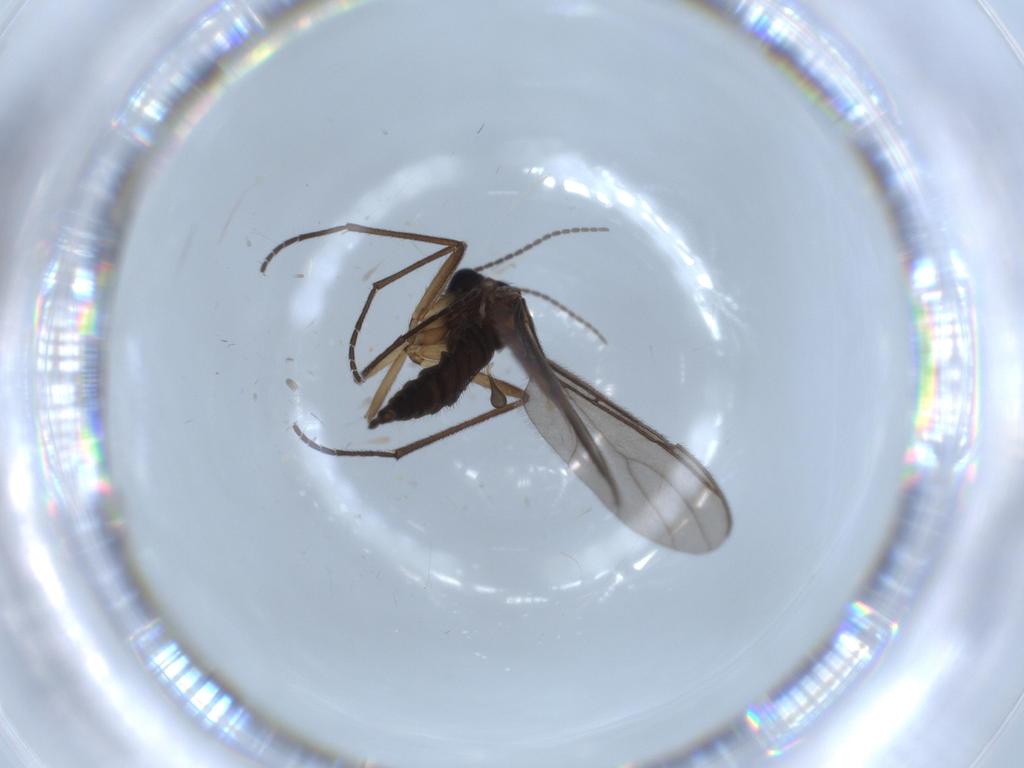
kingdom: Animalia
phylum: Arthropoda
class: Insecta
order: Diptera
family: Sciaridae
